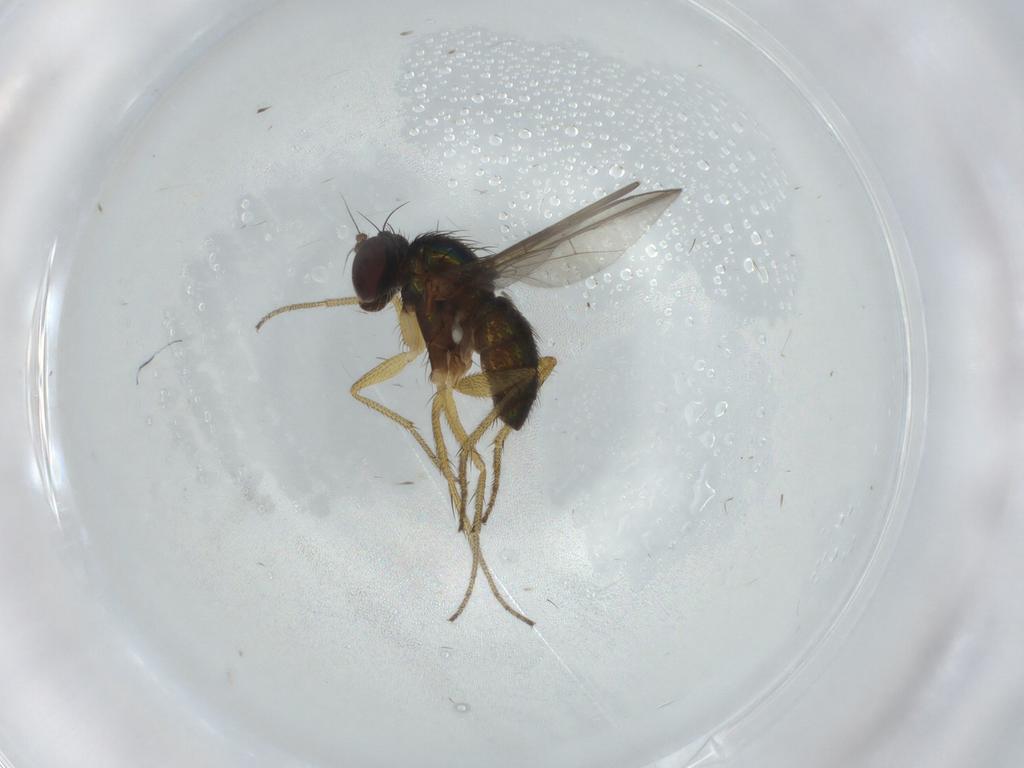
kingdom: Animalia
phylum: Arthropoda
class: Insecta
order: Diptera
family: Dolichopodidae
